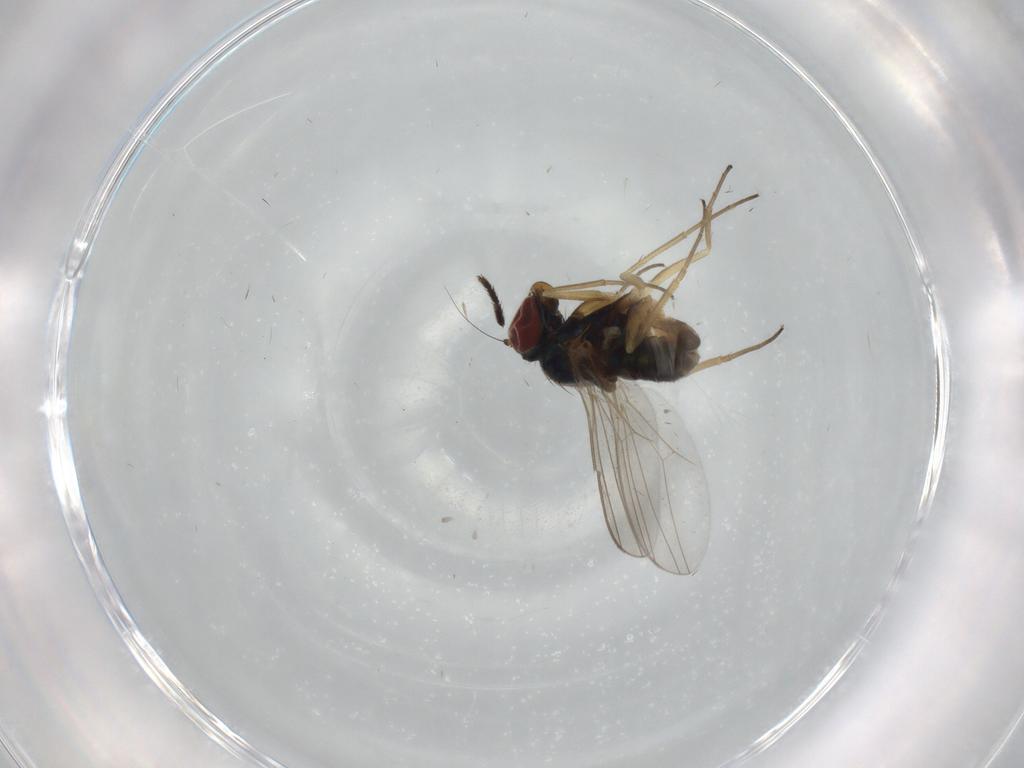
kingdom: Animalia
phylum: Arthropoda
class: Insecta
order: Diptera
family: Dolichopodidae
